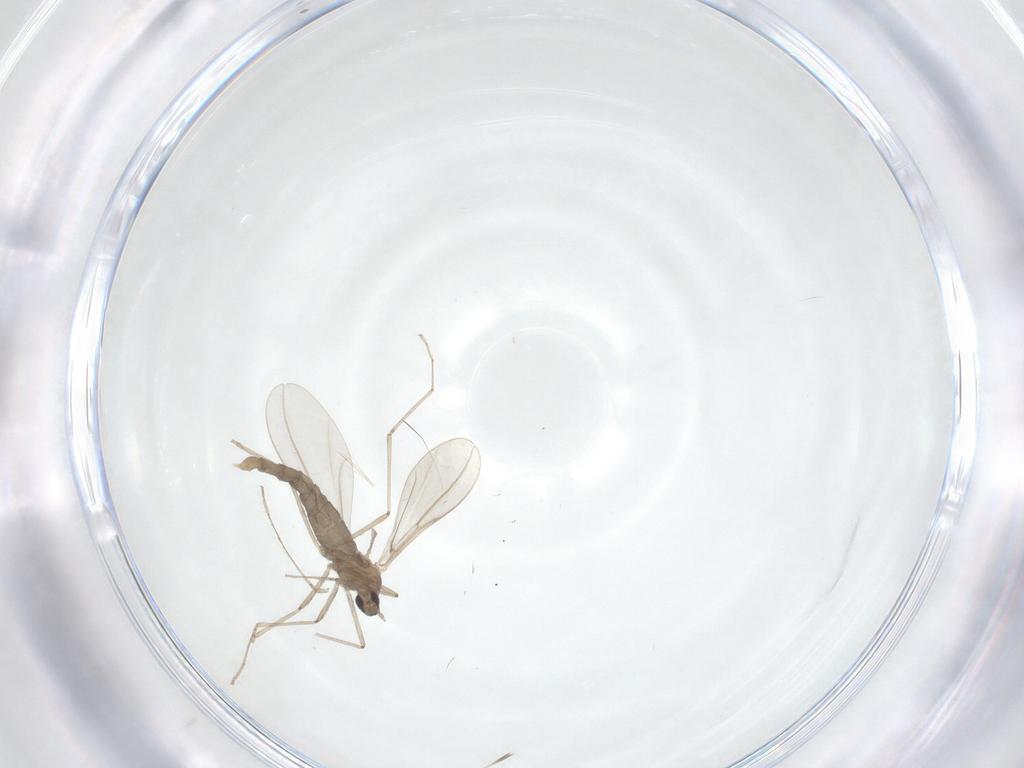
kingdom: Animalia
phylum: Arthropoda
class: Insecta
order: Diptera
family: Cecidomyiidae
